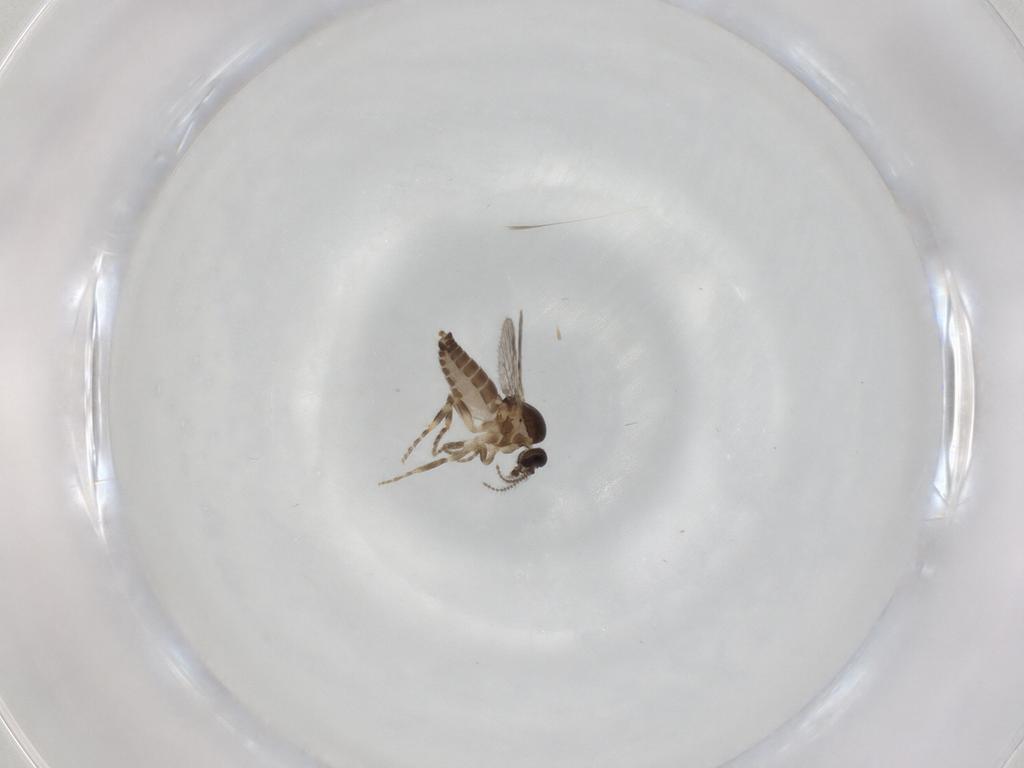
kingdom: Animalia
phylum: Arthropoda
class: Insecta
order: Diptera
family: Ceratopogonidae
